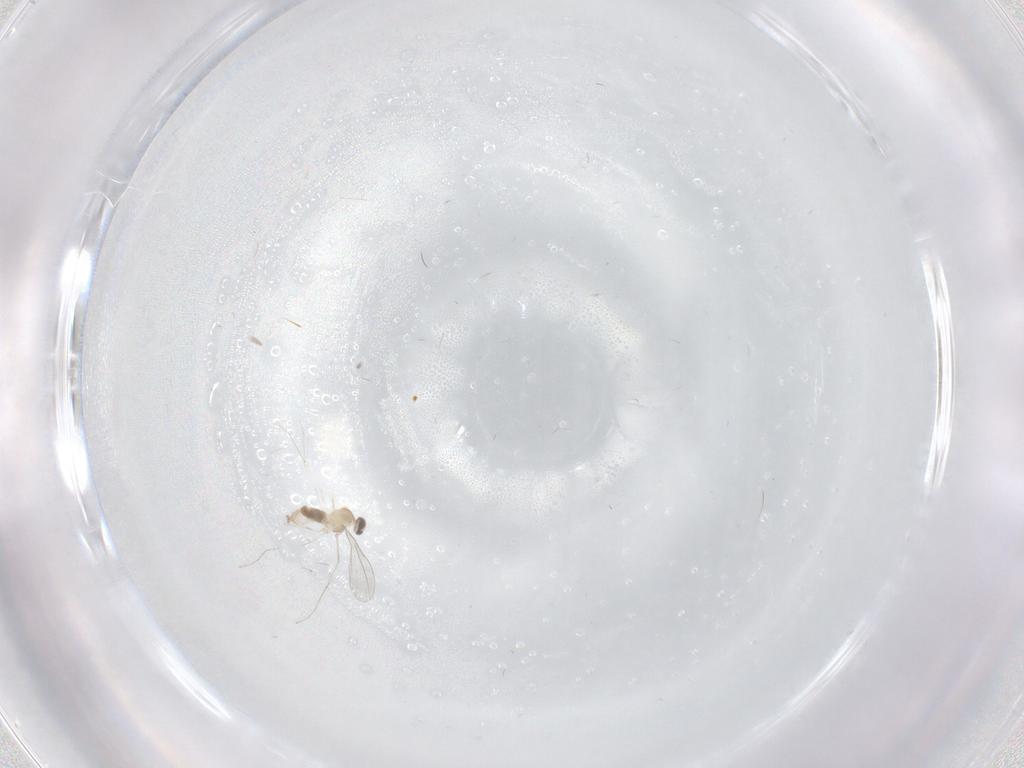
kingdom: Animalia
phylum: Arthropoda
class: Insecta
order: Diptera
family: Cecidomyiidae
